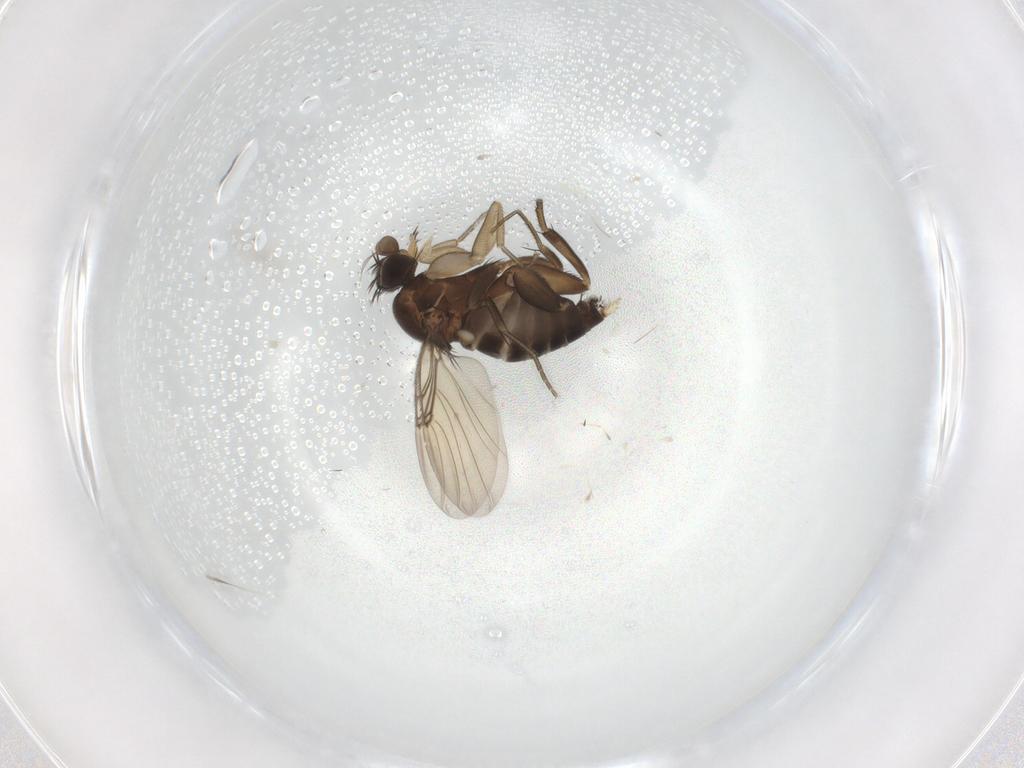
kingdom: Animalia
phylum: Arthropoda
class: Insecta
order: Diptera
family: Phoridae
